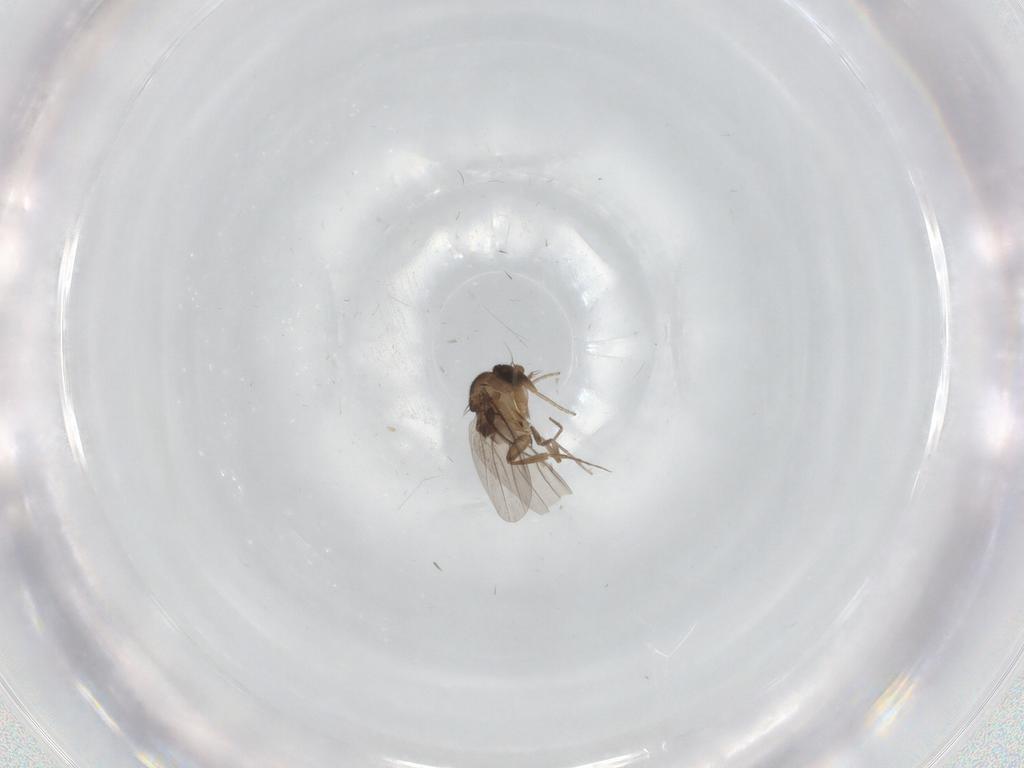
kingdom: Animalia
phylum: Arthropoda
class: Insecta
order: Diptera
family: Phoridae
